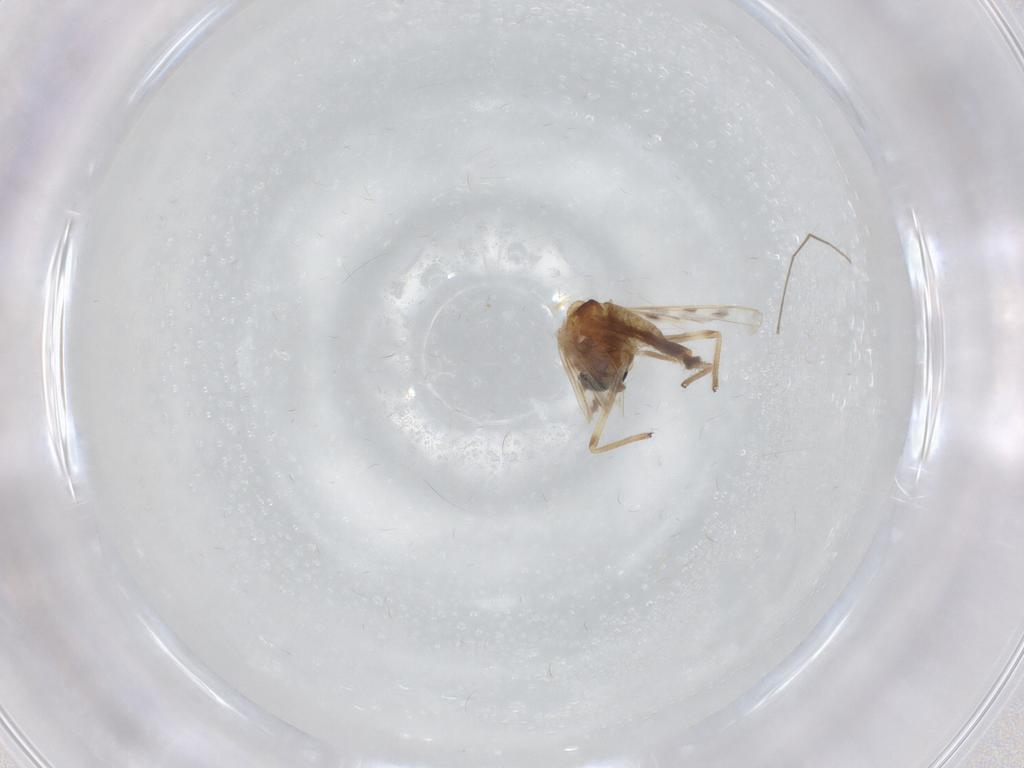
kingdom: Animalia
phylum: Arthropoda
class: Insecta
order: Diptera
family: Chironomidae
